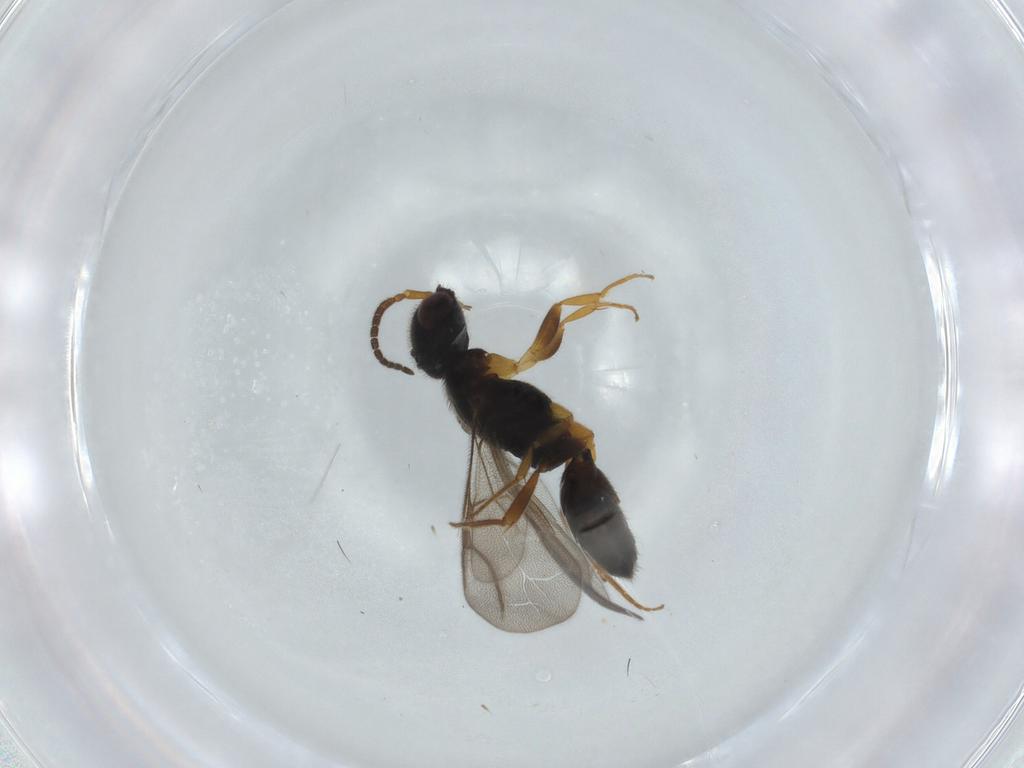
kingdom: Animalia
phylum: Arthropoda
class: Insecta
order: Hymenoptera
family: Bethylidae
